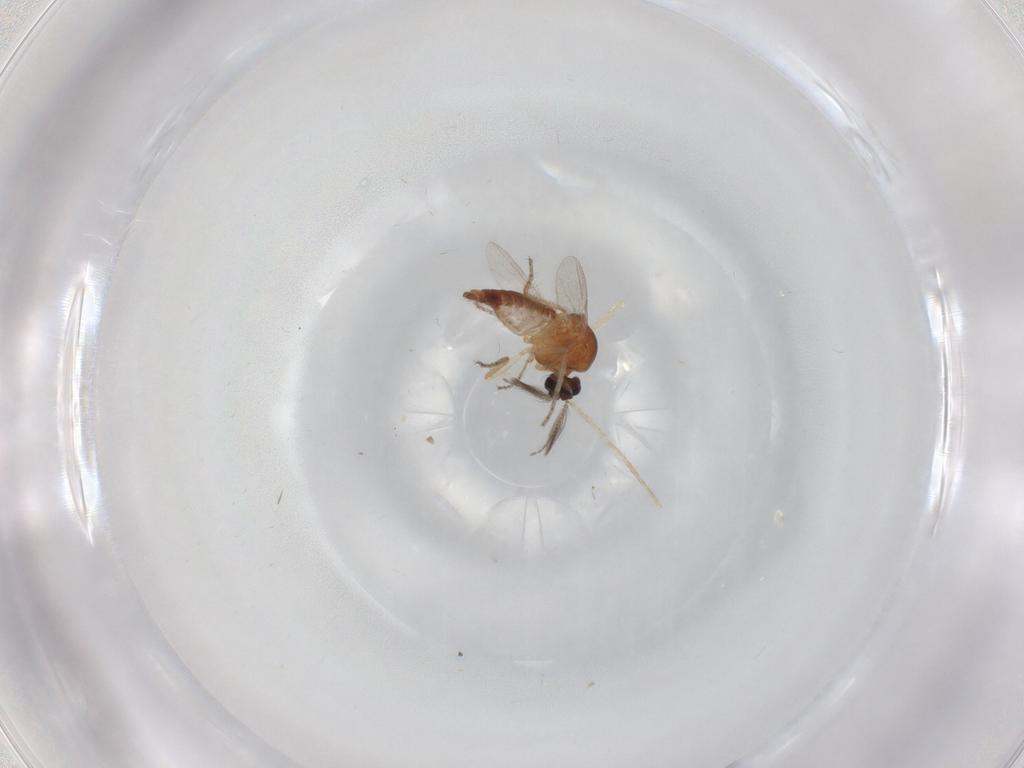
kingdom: Animalia
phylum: Arthropoda
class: Insecta
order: Diptera
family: Ceratopogonidae
